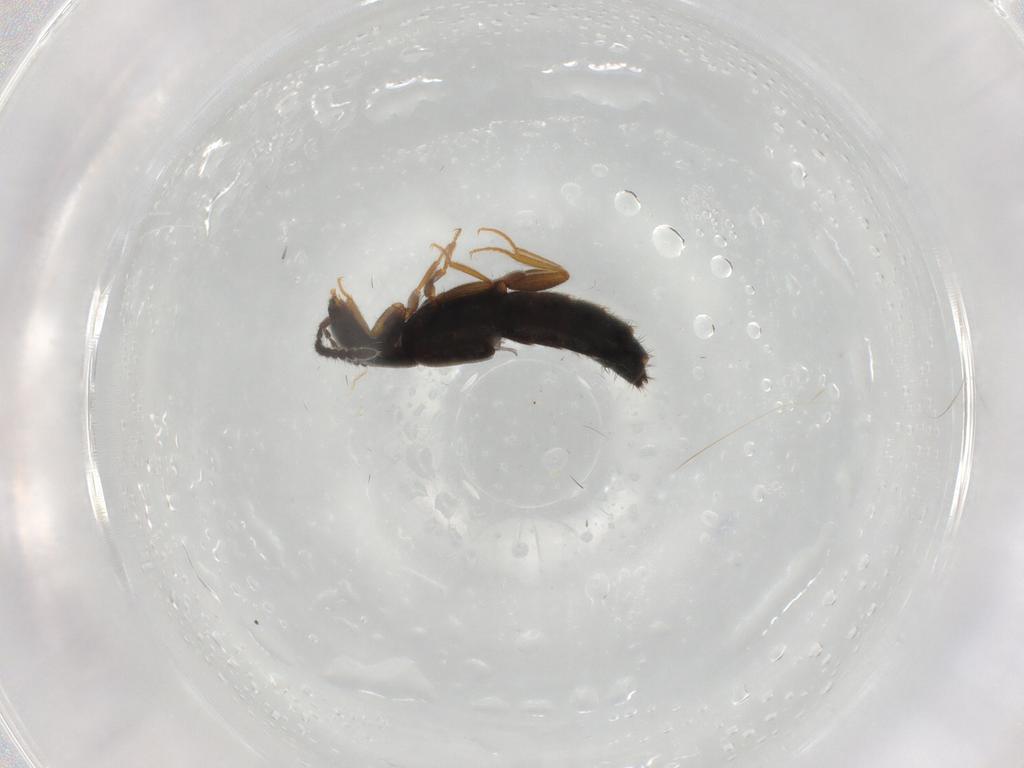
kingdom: Animalia
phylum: Arthropoda
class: Insecta
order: Coleoptera
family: Staphylinidae
